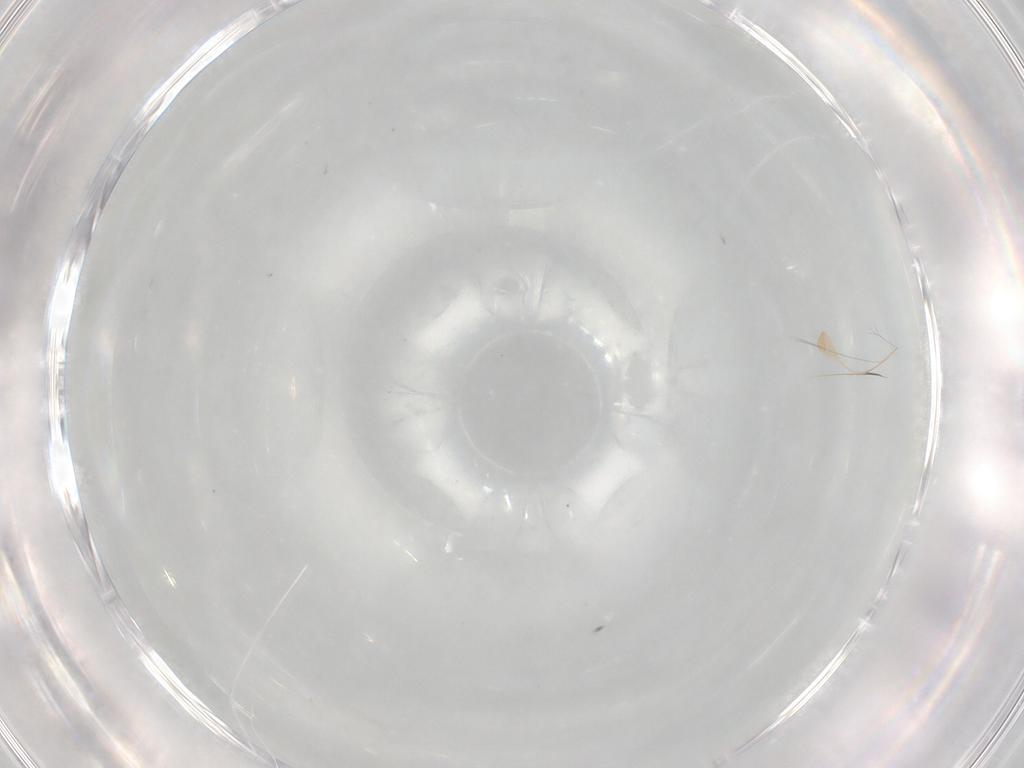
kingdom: Animalia
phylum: Arthropoda
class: Arachnida
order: Trombidiformes
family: Tetranychidae
